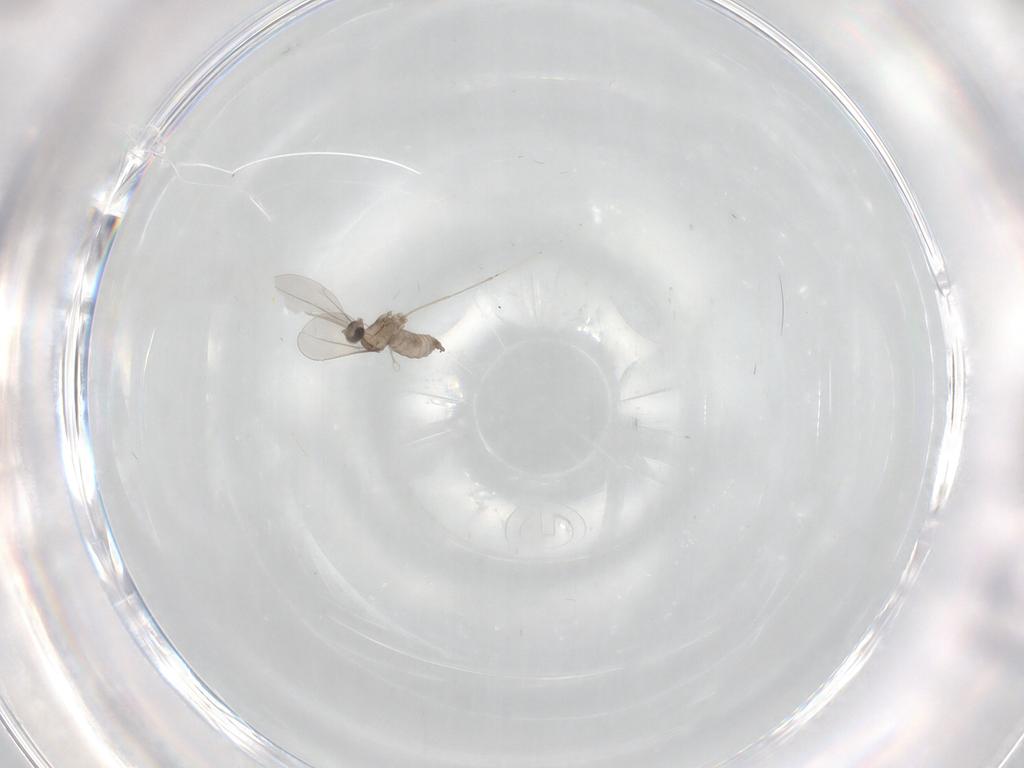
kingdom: Animalia
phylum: Arthropoda
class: Insecta
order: Diptera
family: Cecidomyiidae
